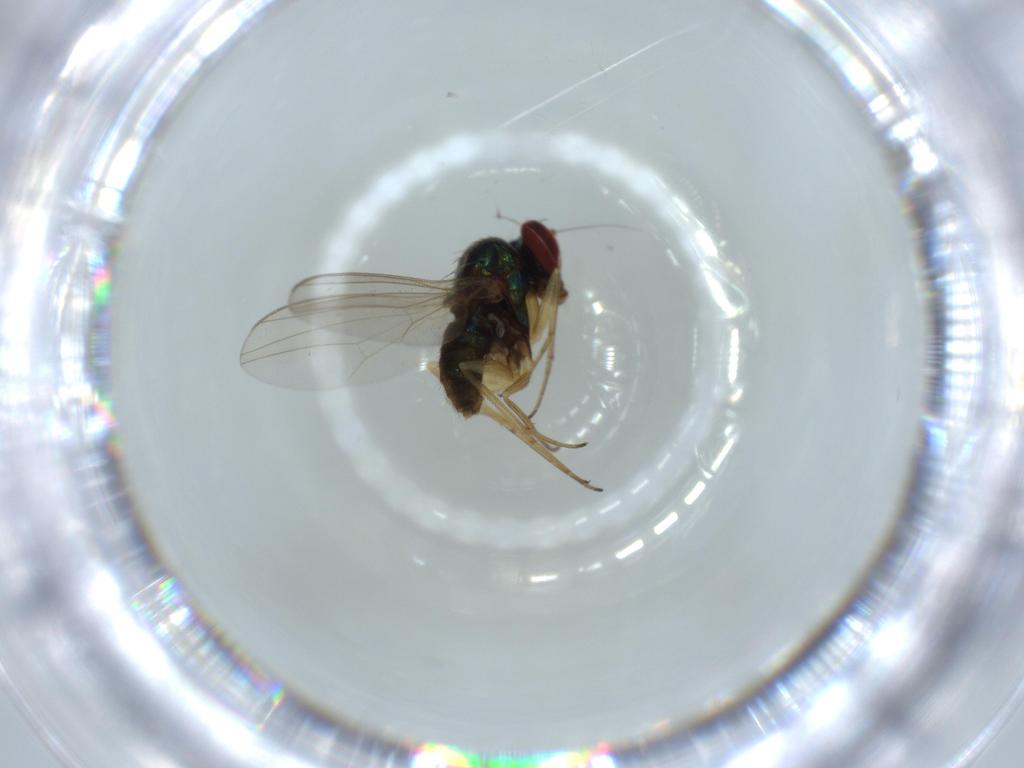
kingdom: Animalia
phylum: Arthropoda
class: Insecta
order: Diptera
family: Dolichopodidae
